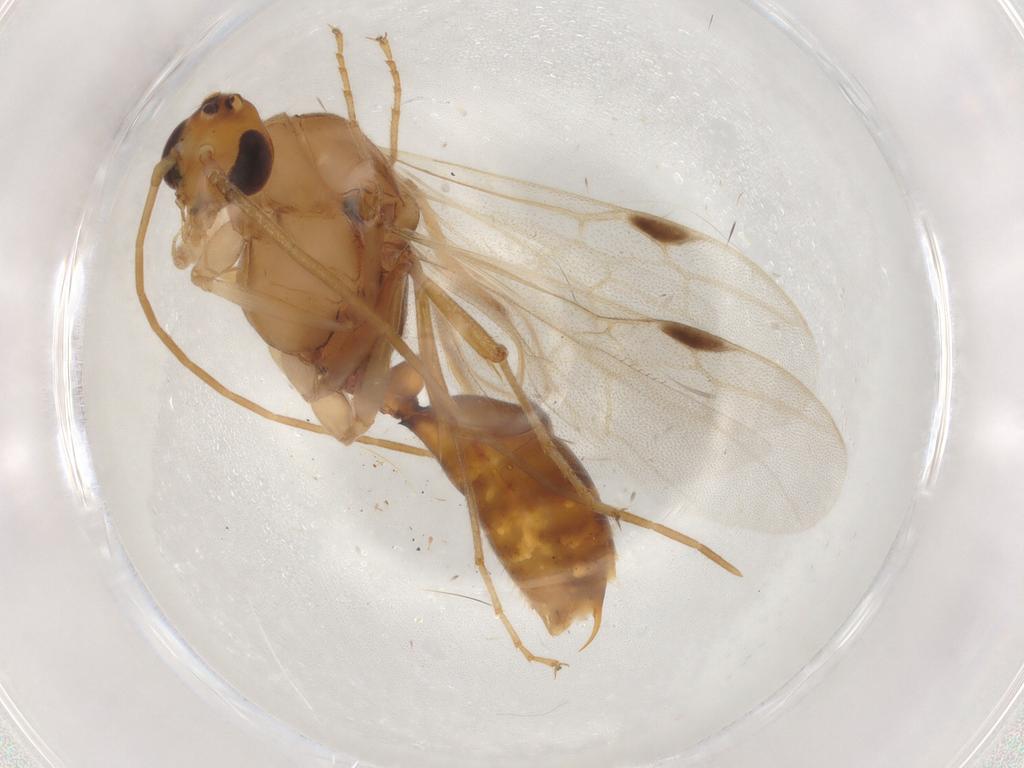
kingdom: Animalia
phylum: Arthropoda
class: Insecta
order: Hymenoptera
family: Formicidae
